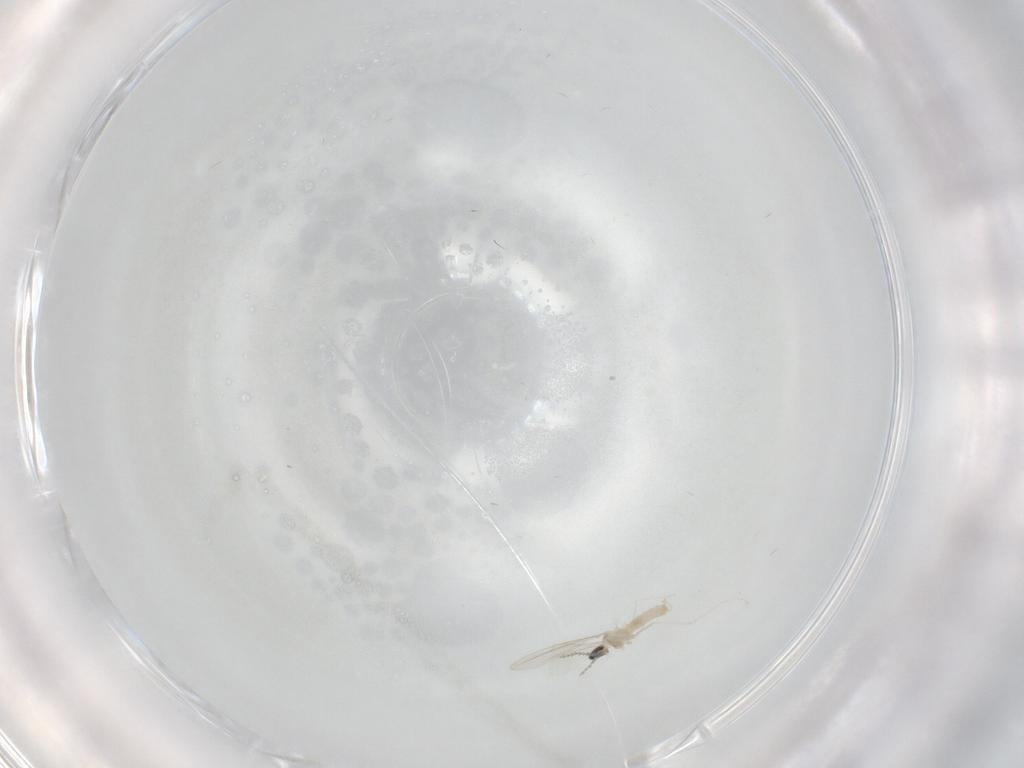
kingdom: Animalia
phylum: Arthropoda
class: Insecta
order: Diptera
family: Cecidomyiidae
